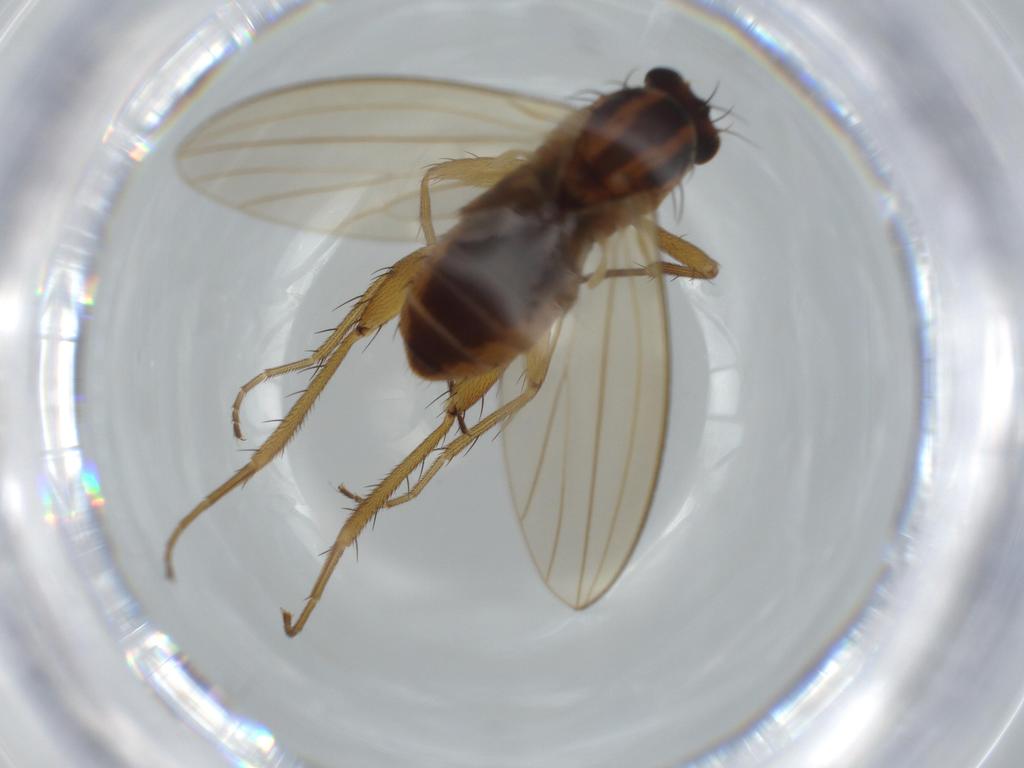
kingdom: Animalia
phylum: Arthropoda
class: Insecta
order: Diptera
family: Lonchopteridae
